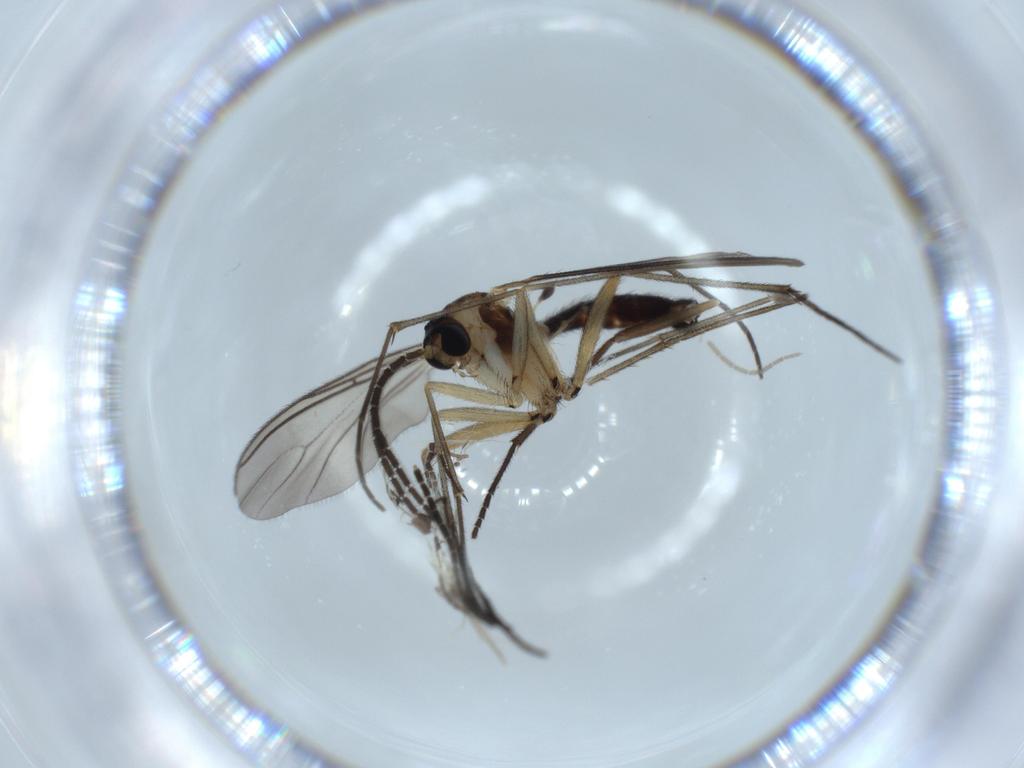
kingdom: Animalia
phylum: Arthropoda
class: Insecta
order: Diptera
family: Sciaridae
